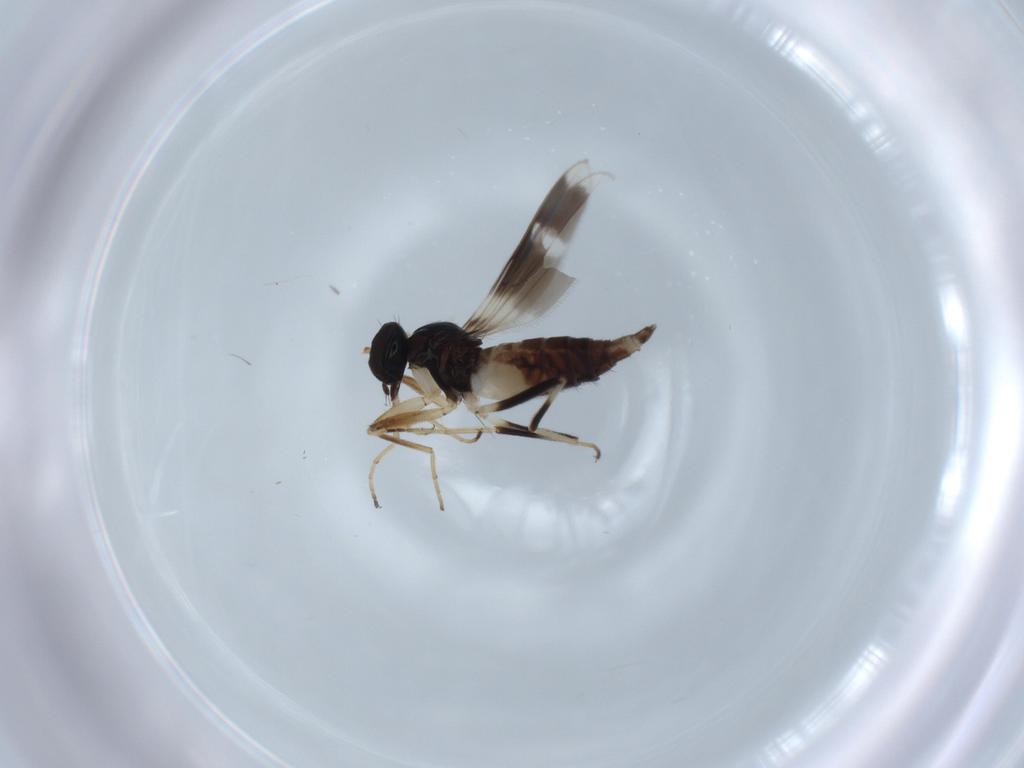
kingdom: Animalia
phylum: Arthropoda
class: Insecta
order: Diptera
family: Hybotidae
